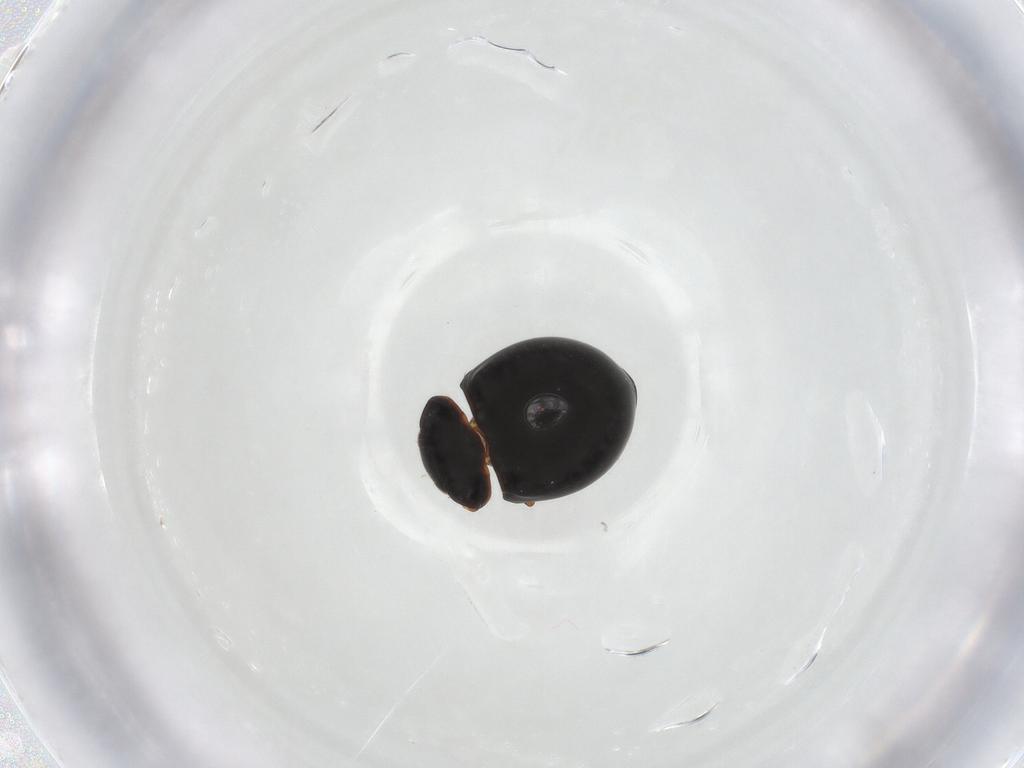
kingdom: Animalia
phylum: Arthropoda
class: Insecta
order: Coleoptera
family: Coccinellidae
